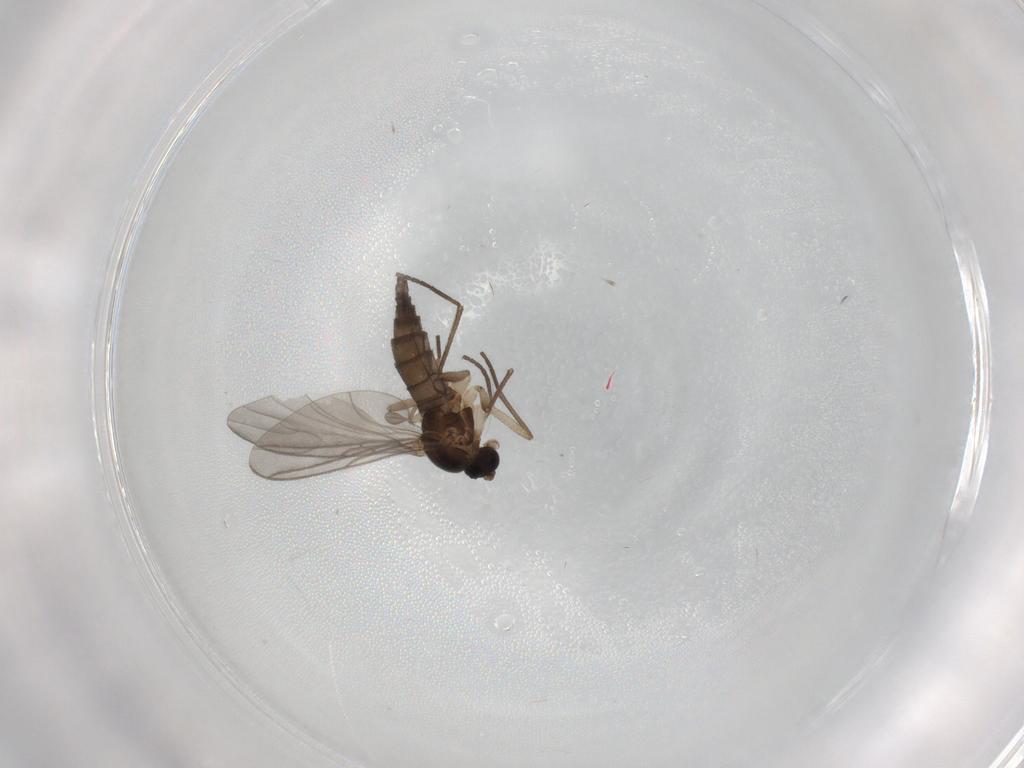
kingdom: Animalia
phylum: Arthropoda
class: Insecta
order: Diptera
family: Sciaridae
